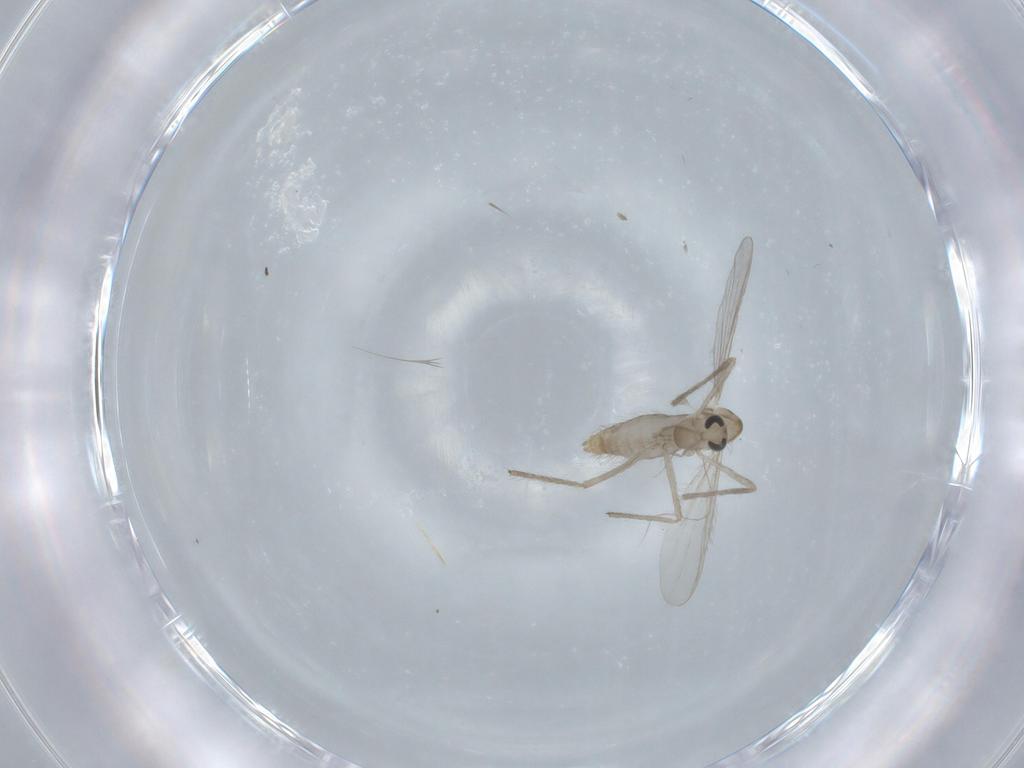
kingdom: Animalia
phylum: Arthropoda
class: Insecta
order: Diptera
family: Chironomidae
